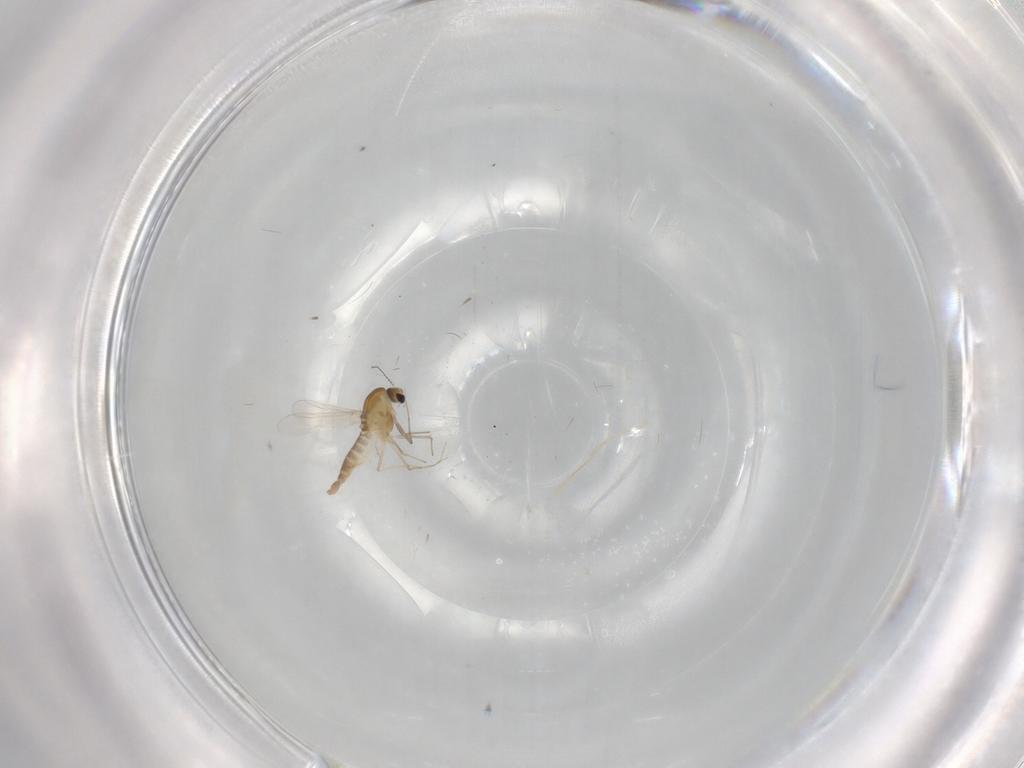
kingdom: Animalia
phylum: Arthropoda
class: Insecta
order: Diptera
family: Chironomidae
